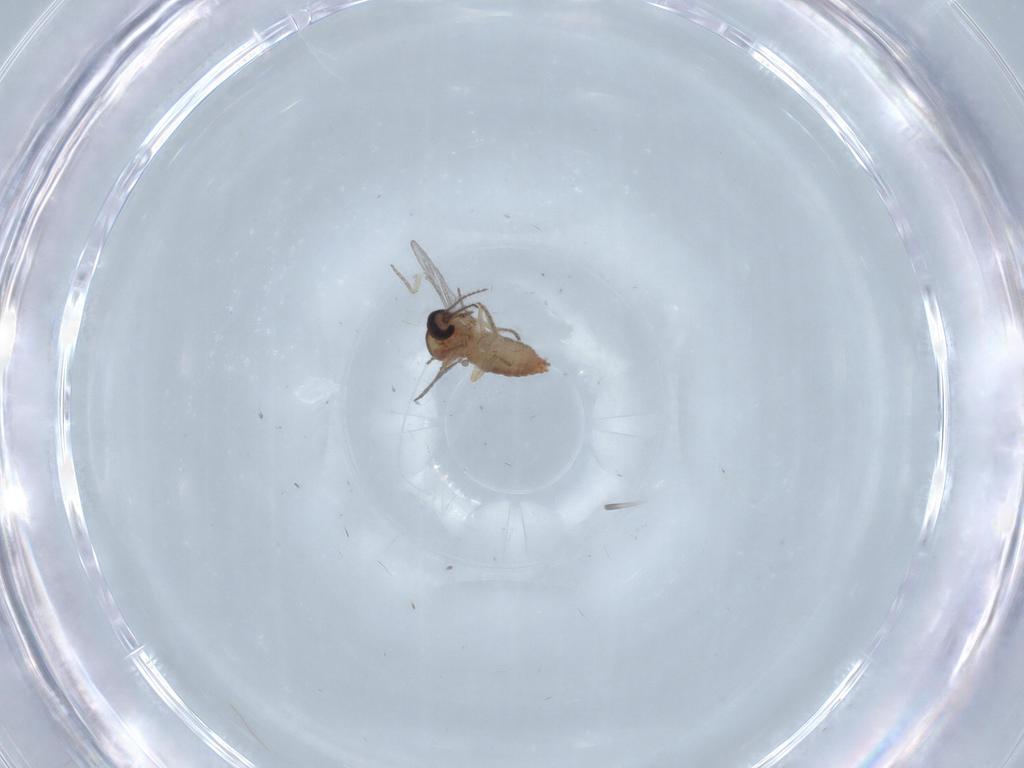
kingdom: Animalia
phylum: Arthropoda
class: Insecta
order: Diptera
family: Ceratopogonidae
